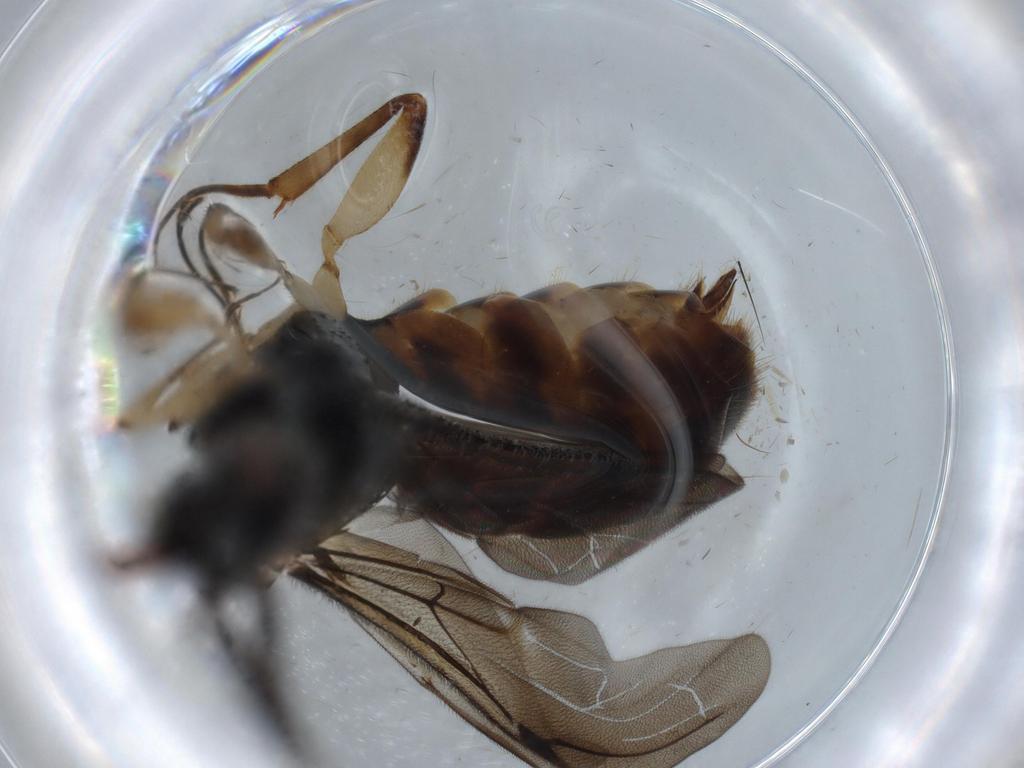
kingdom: Animalia
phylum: Arthropoda
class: Insecta
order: Hymenoptera
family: Bethylidae
